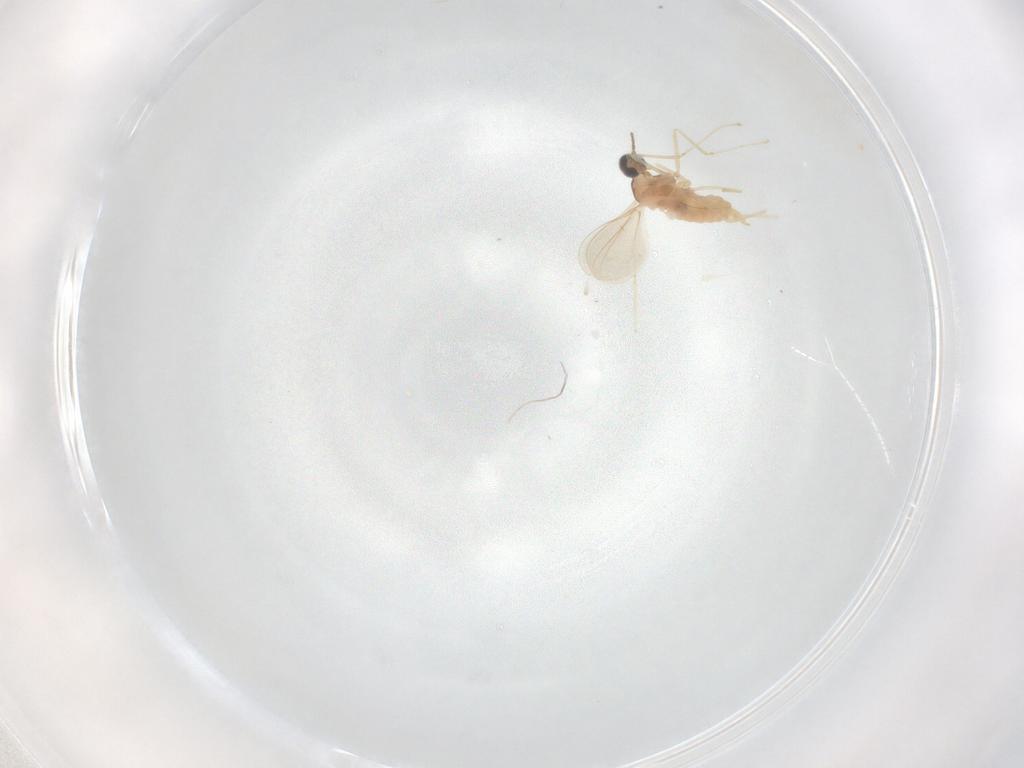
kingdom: Animalia
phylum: Arthropoda
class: Insecta
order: Diptera
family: Cecidomyiidae
